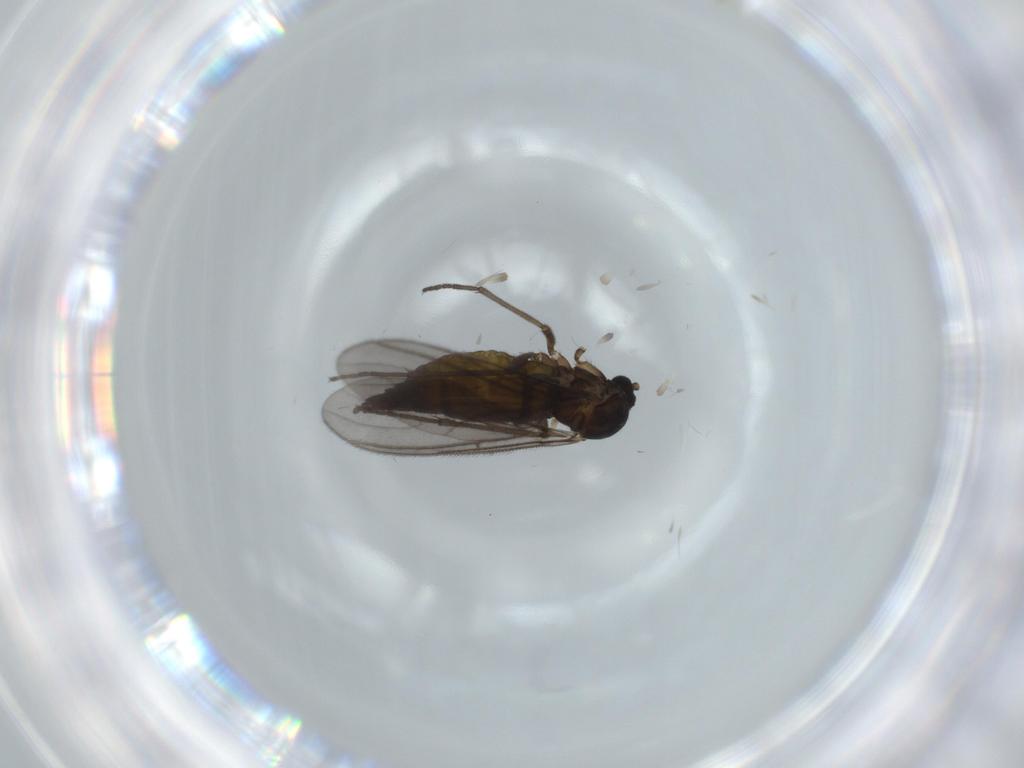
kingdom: Animalia
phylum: Arthropoda
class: Insecta
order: Diptera
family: Sciaridae
